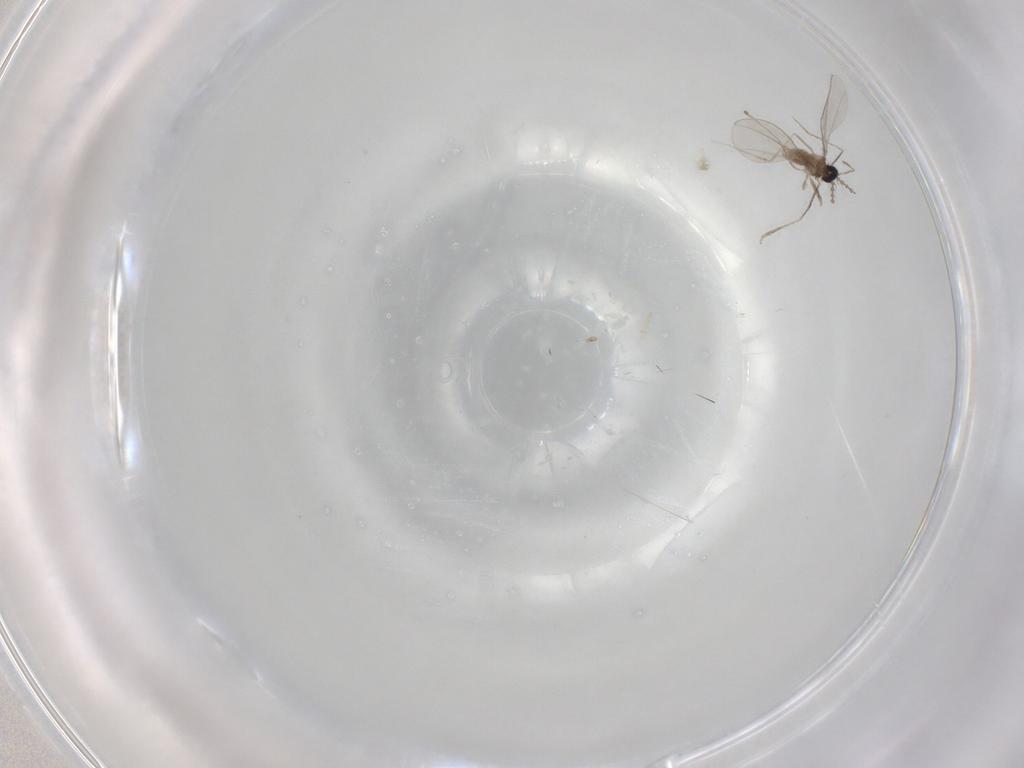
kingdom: Animalia
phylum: Arthropoda
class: Insecta
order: Diptera
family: Cecidomyiidae
